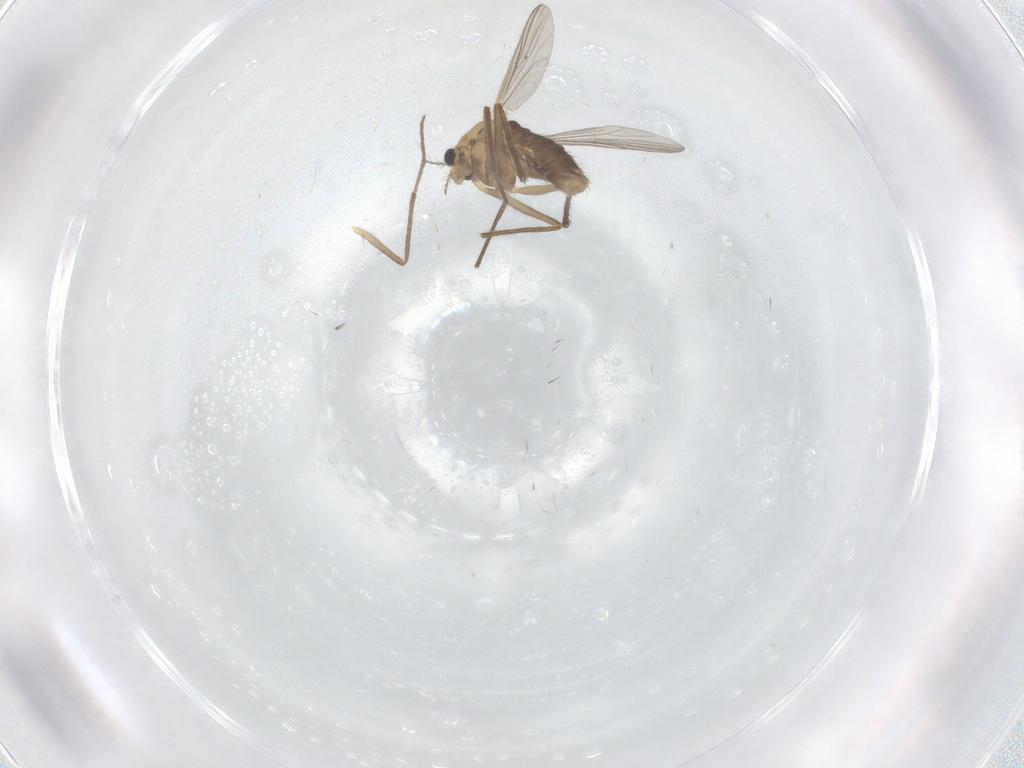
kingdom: Animalia
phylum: Arthropoda
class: Insecta
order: Diptera
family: Chironomidae
